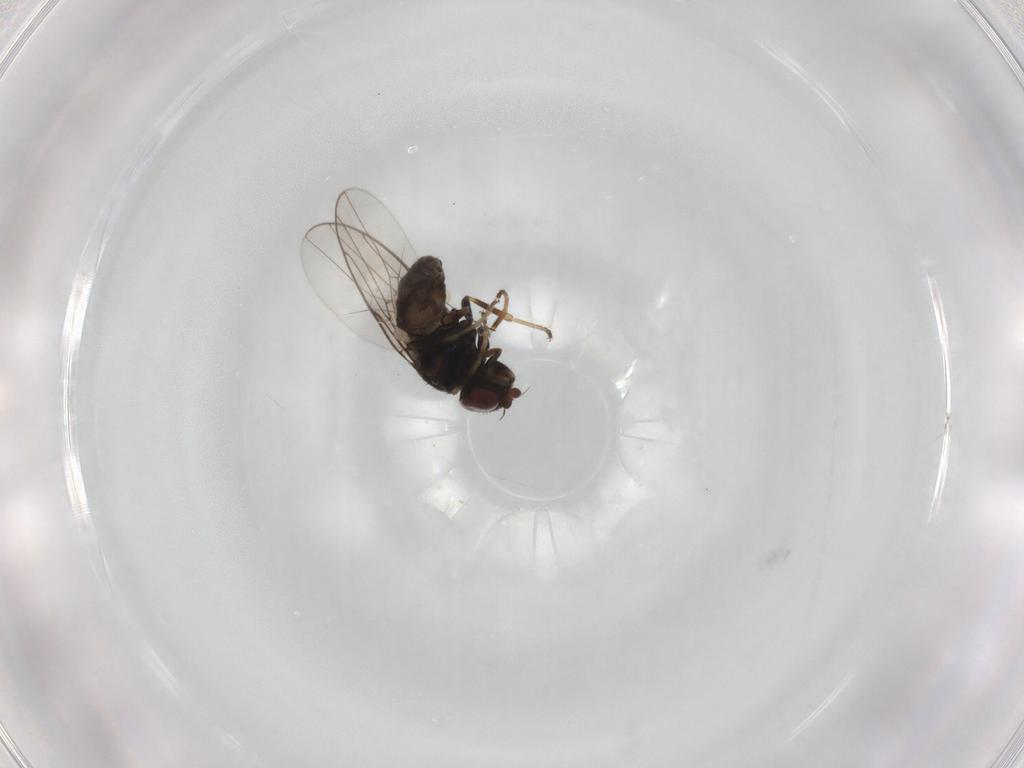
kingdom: Animalia
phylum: Arthropoda
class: Insecta
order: Diptera
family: Chloropidae
